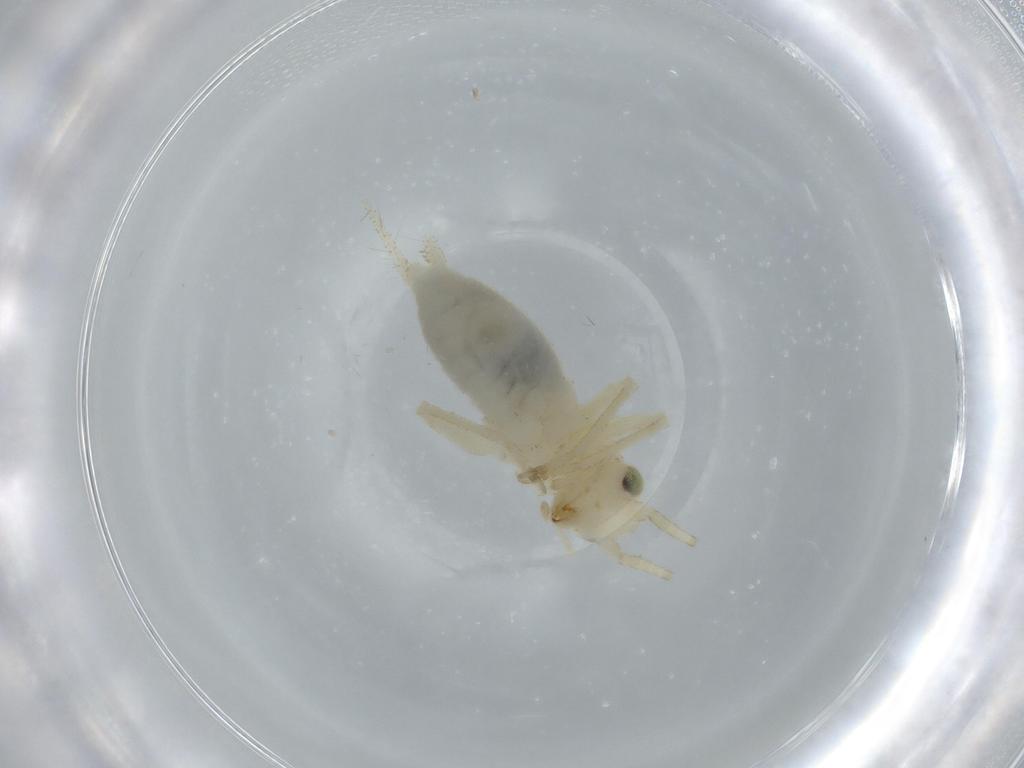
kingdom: Animalia
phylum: Arthropoda
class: Insecta
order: Orthoptera
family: Trigonidiidae
